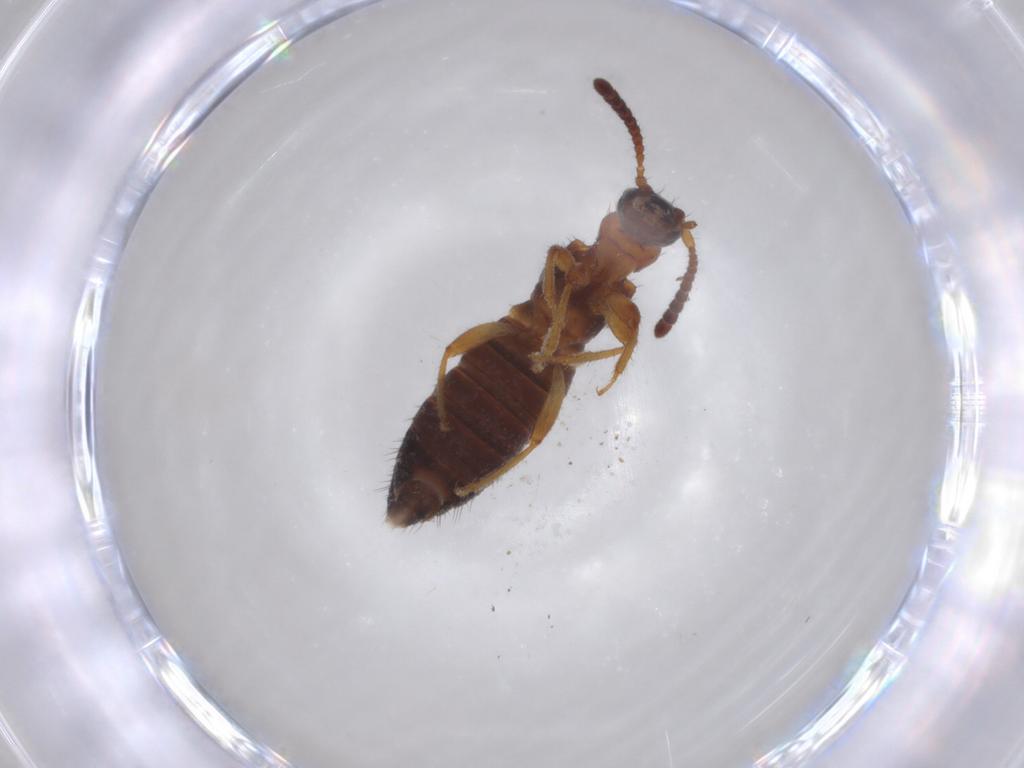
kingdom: Animalia
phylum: Arthropoda
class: Insecta
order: Coleoptera
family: Staphylinidae
